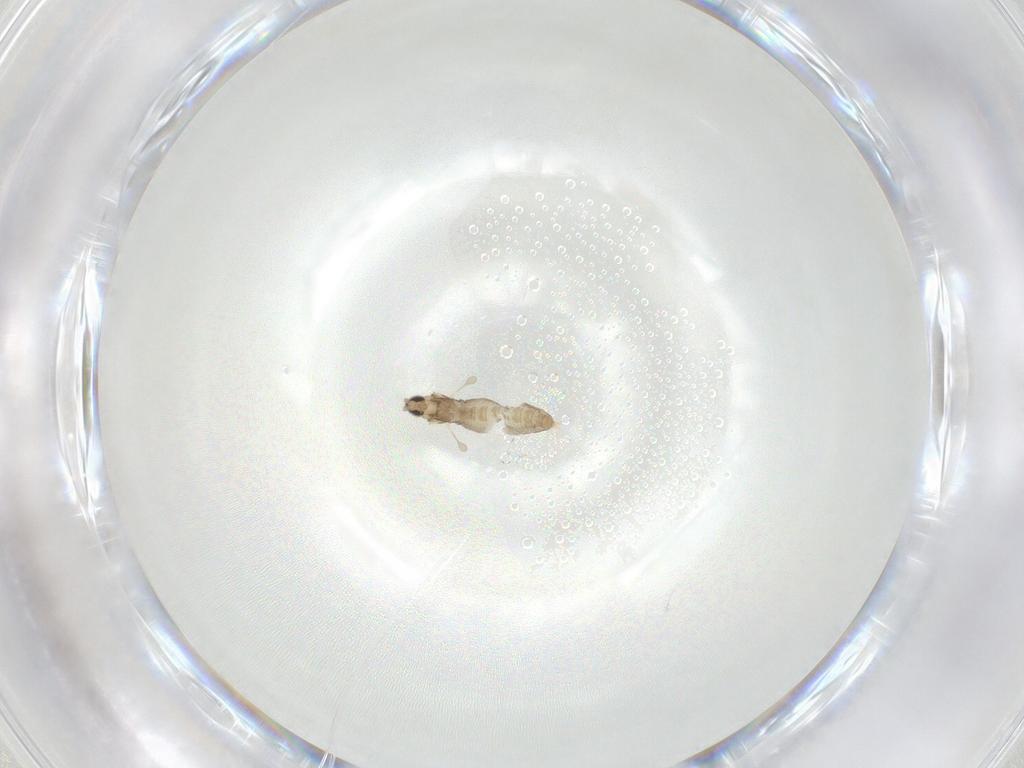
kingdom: Animalia
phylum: Arthropoda
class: Insecta
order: Diptera
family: Cecidomyiidae
